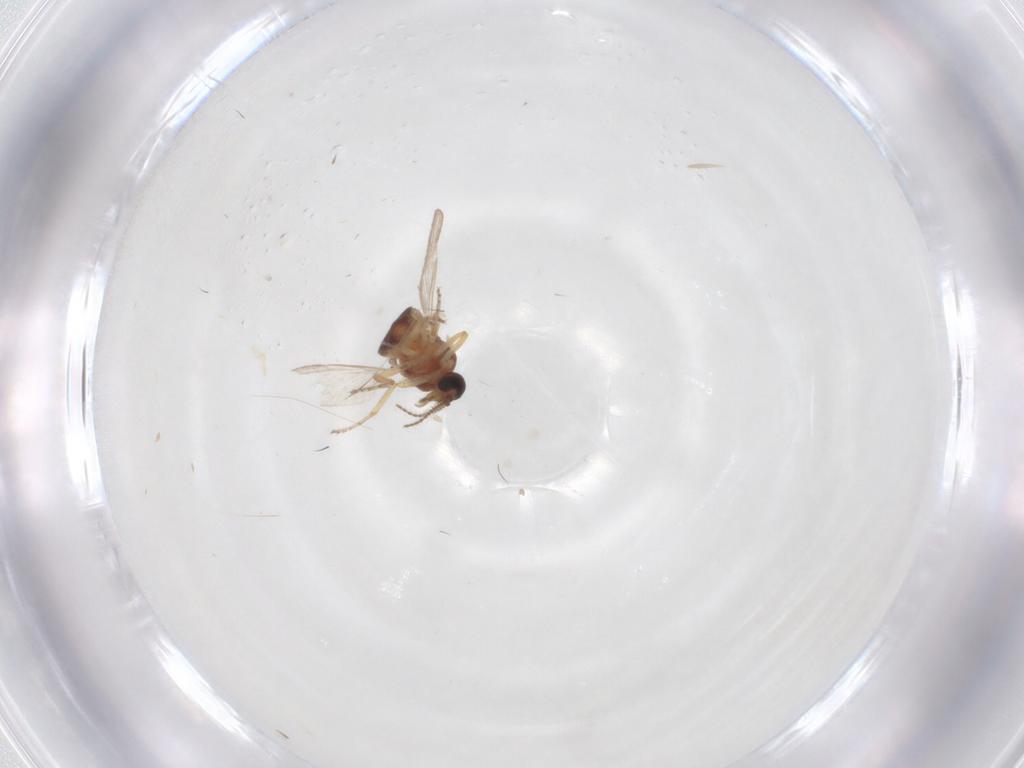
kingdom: Animalia
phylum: Arthropoda
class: Insecta
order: Diptera
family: Ceratopogonidae
